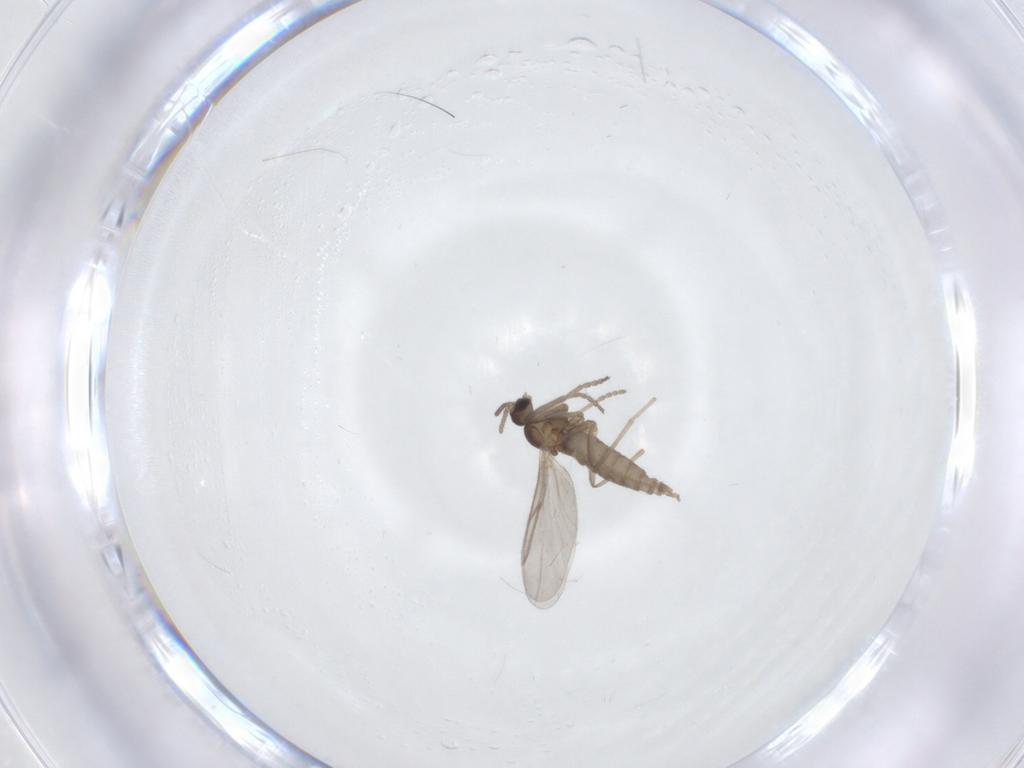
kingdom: Animalia
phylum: Arthropoda
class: Insecta
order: Diptera
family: Cecidomyiidae
